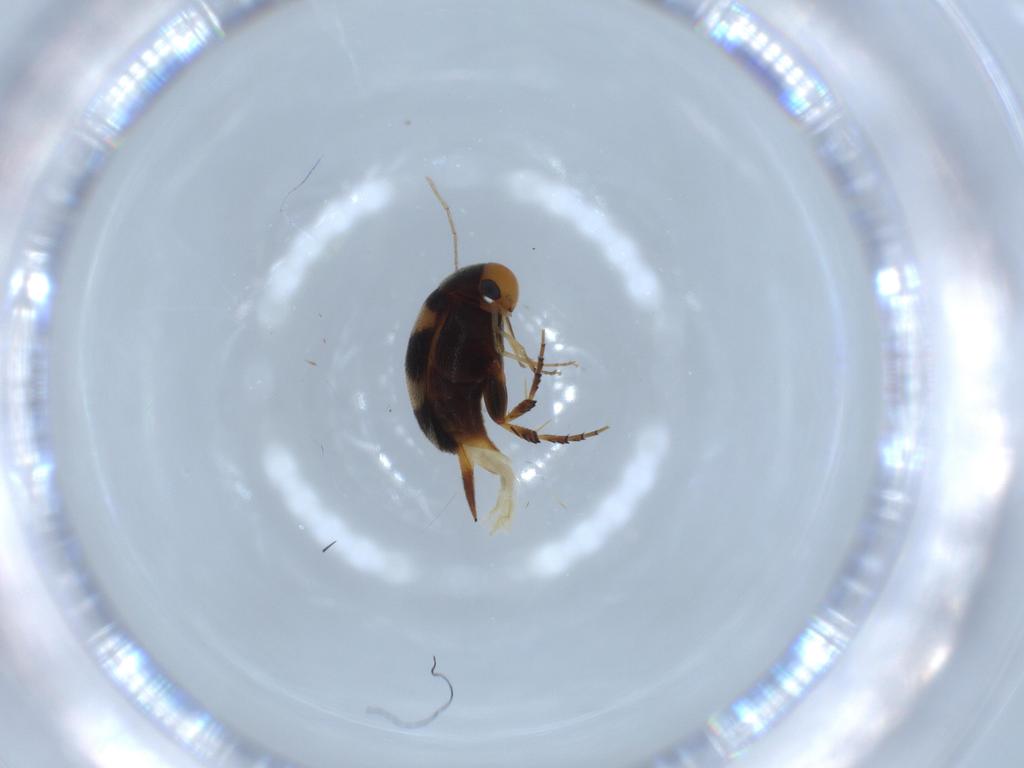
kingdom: Animalia
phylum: Arthropoda
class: Insecta
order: Coleoptera
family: Mordellidae
